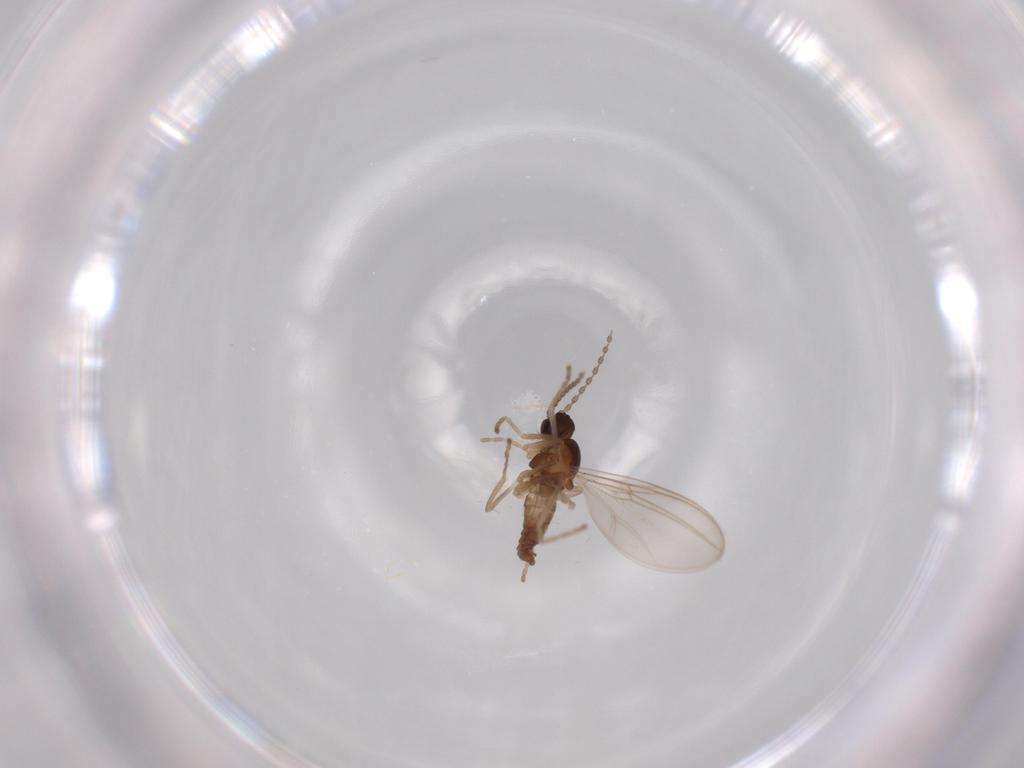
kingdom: Animalia
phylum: Arthropoda
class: Insecta
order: Diptera
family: Cecidomyiidae
